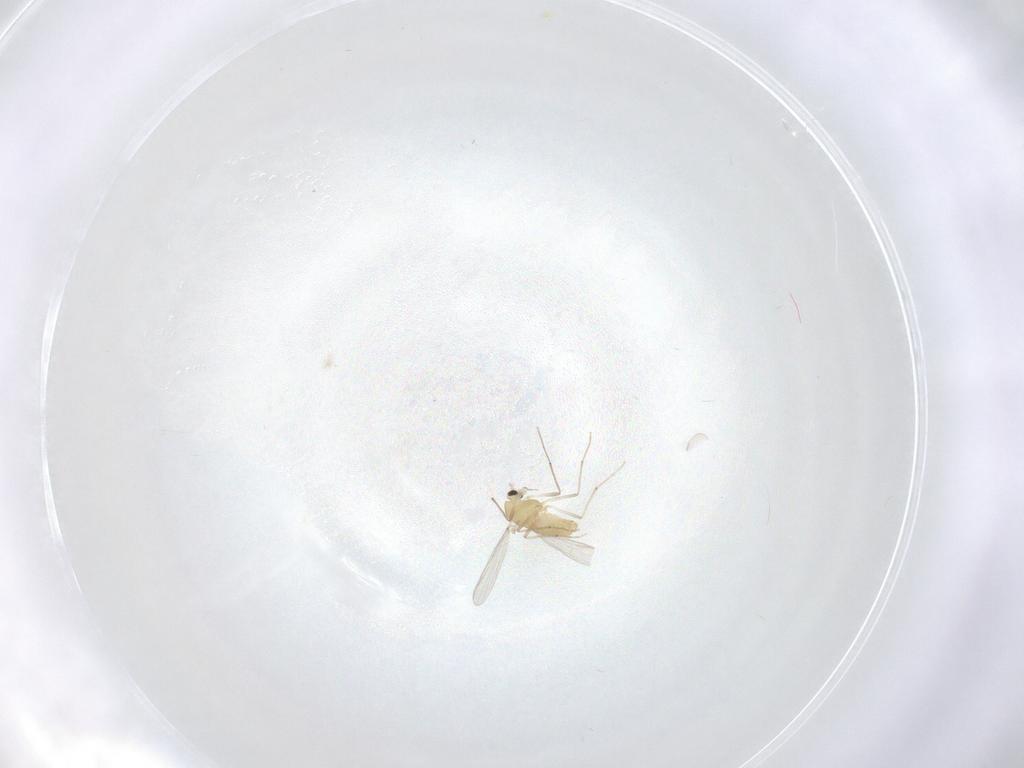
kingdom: Animalia
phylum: Arthropoda
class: Insecta
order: Diptera
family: Chironomidae
